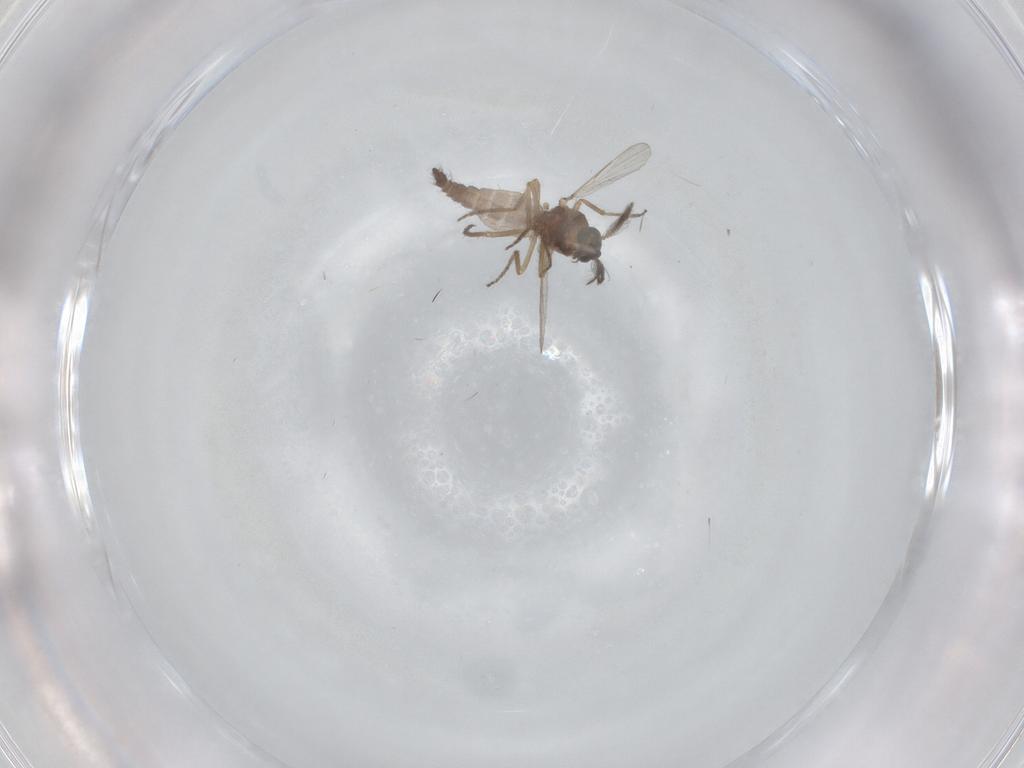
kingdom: Animalia
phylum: Arthropoda
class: Insecta
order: Diptera
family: Ceratopogonidae
